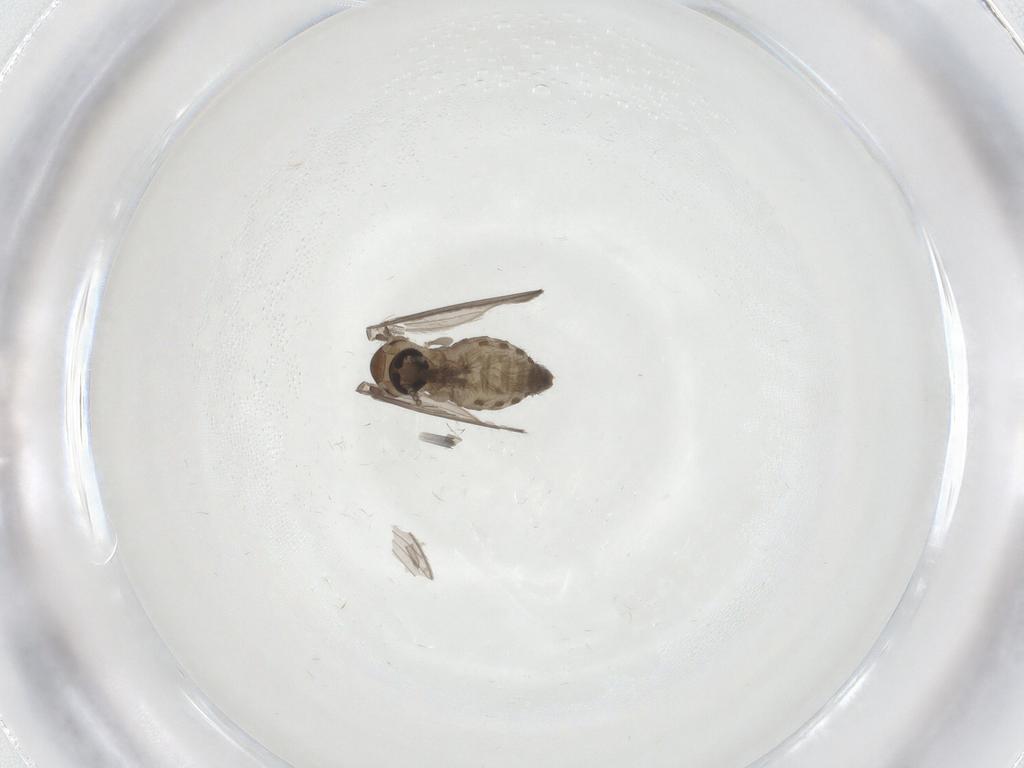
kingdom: Animalia
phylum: Arthropoda
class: Insecta
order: Diptera
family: Psychodidae
